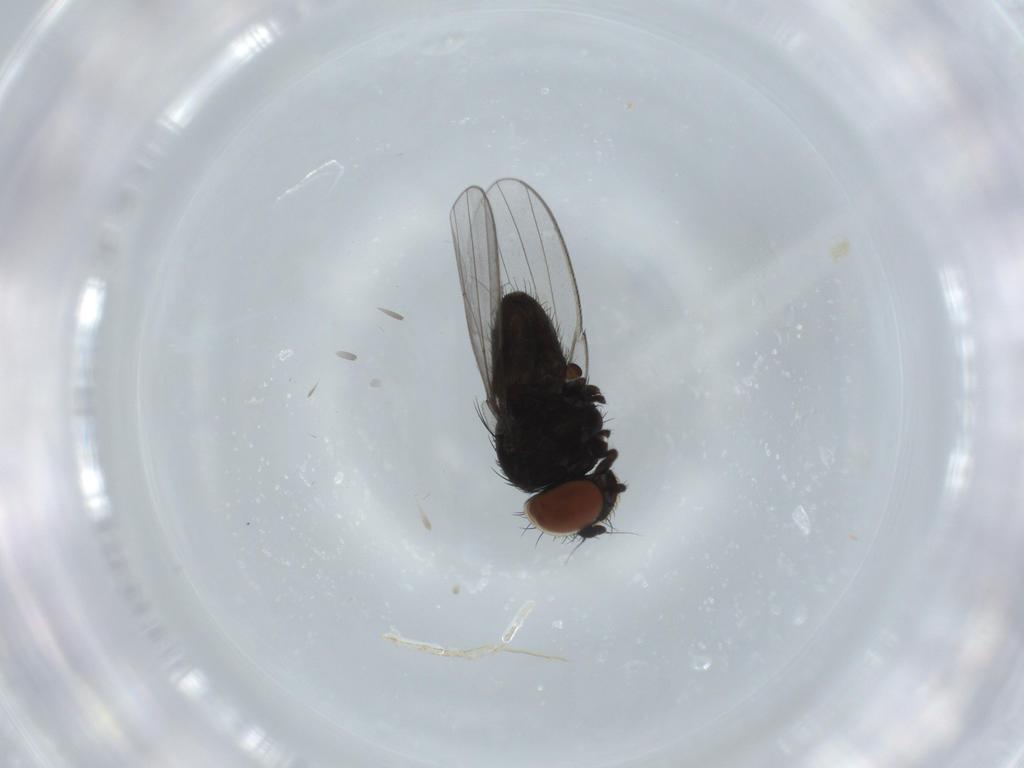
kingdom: Animalia
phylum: Arthropoda
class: Insecta
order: Diptera
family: Milichiidae
